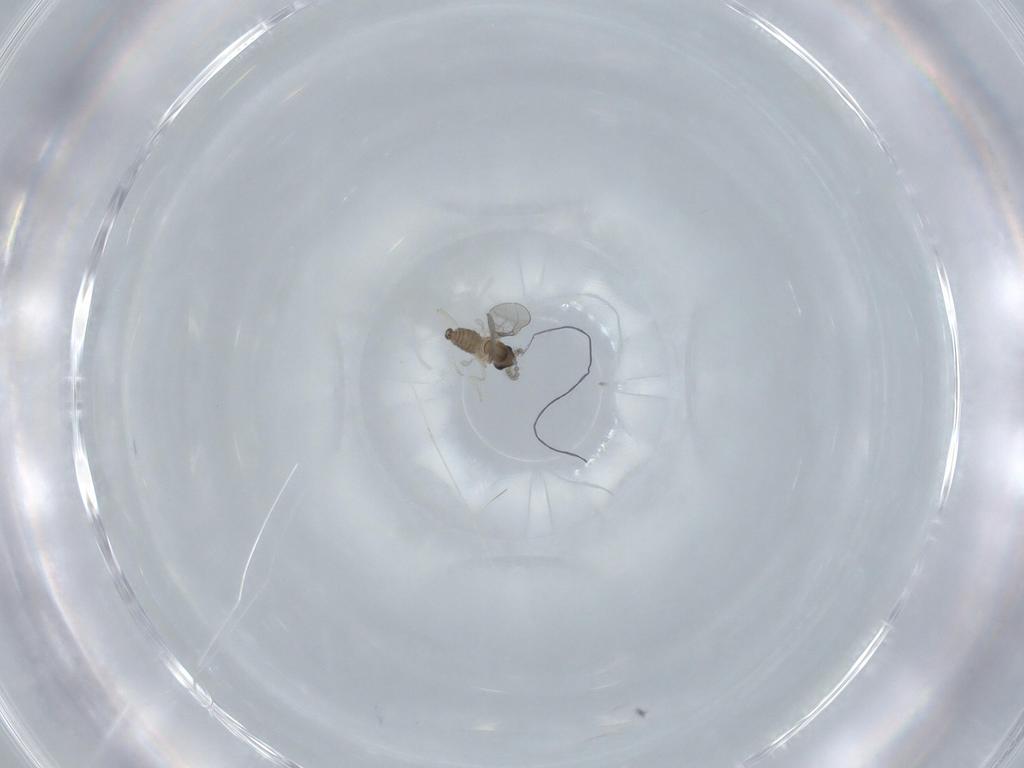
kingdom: Animalia
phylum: Arthropoda
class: Insecta
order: Diptera
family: Cecidomyiidae
